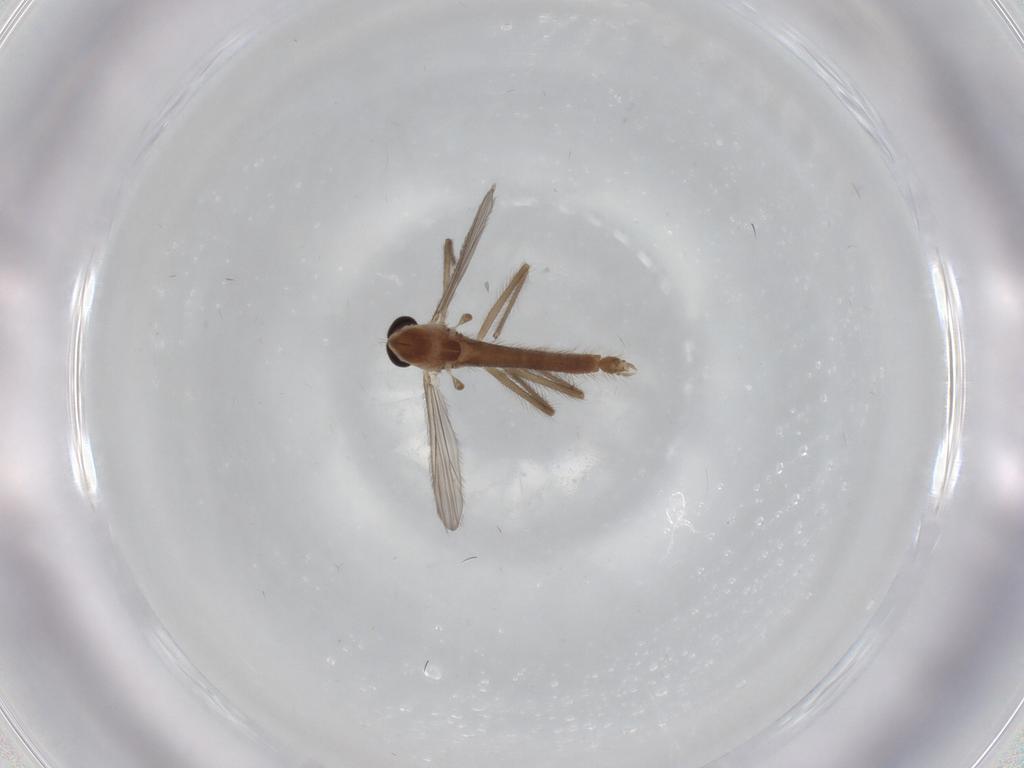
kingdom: Animalia
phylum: Arthropoda
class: Insecta
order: Diptera
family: Chironomidae
